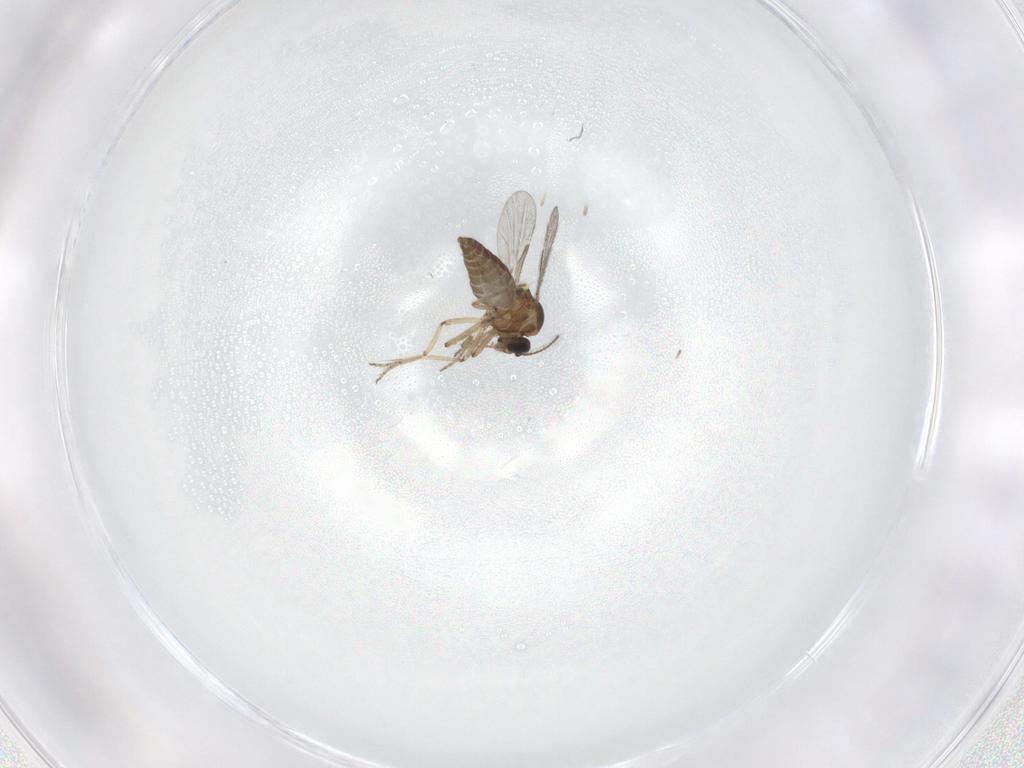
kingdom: Animalia
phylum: Arthropoda
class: Insecta
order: Diptera
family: Ceratopogonidae
